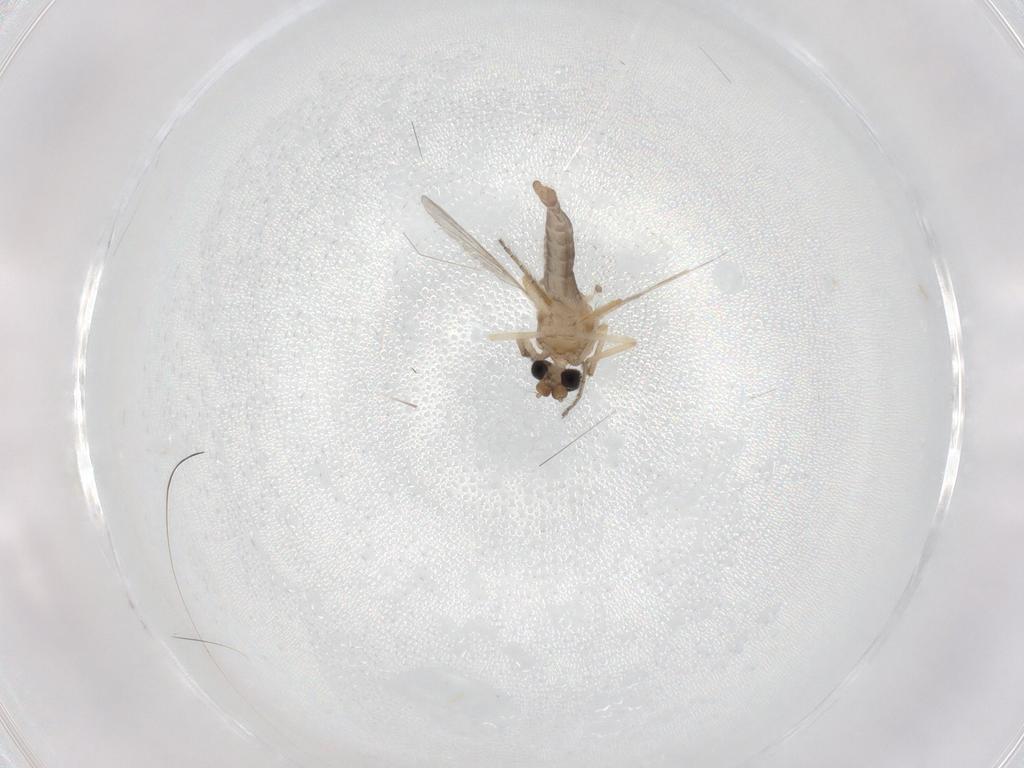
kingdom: Animalia
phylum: Arthropoda
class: Insecta
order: Diptera
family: Ceratopogonidae
